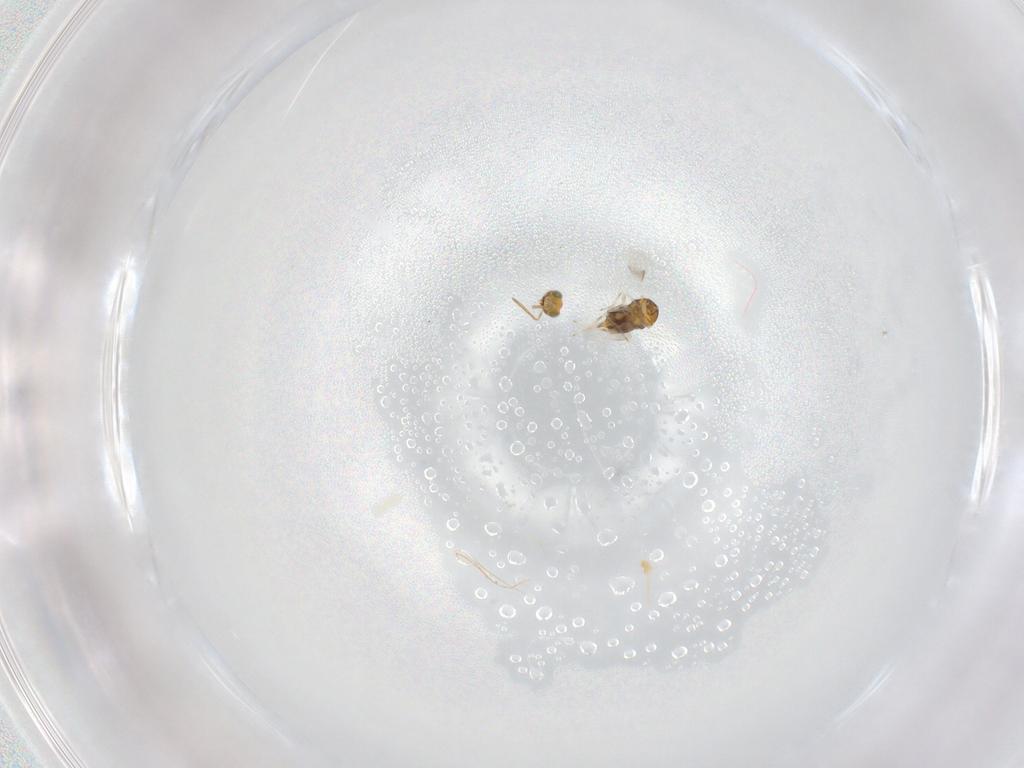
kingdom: Animalia
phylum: Arthropoda
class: Insecta
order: Hymenoptera
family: Aphelinidae
